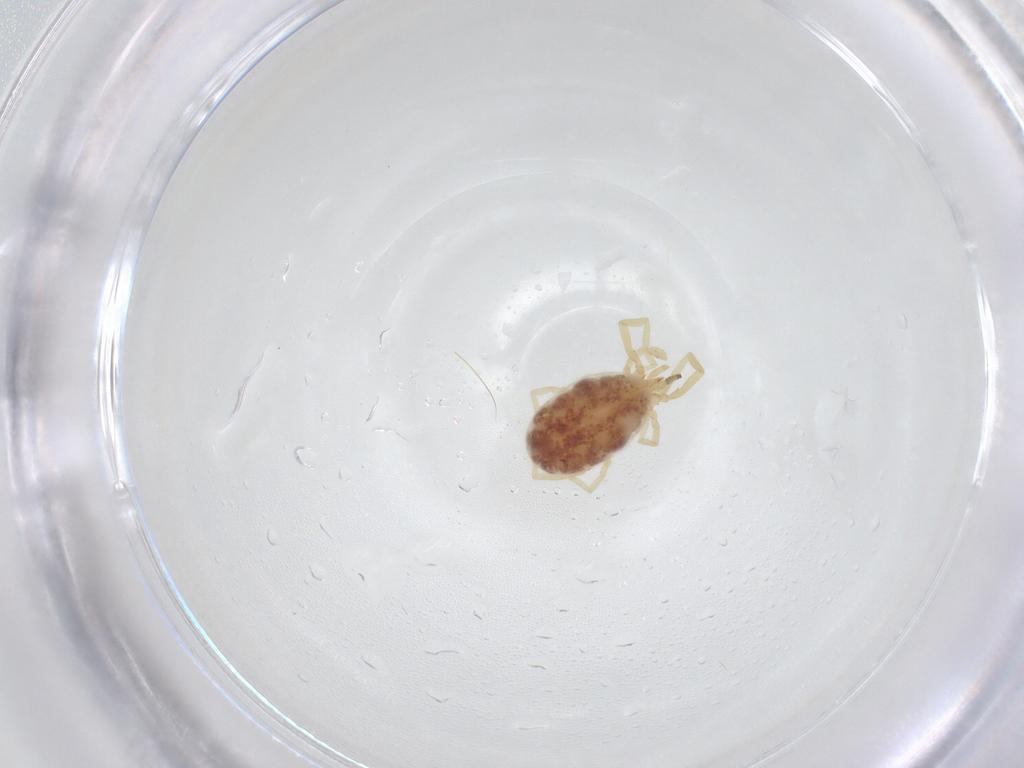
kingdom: Animalia
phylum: Arthropoda
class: Arachnida
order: Trombidiformes
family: Erythraeidae
